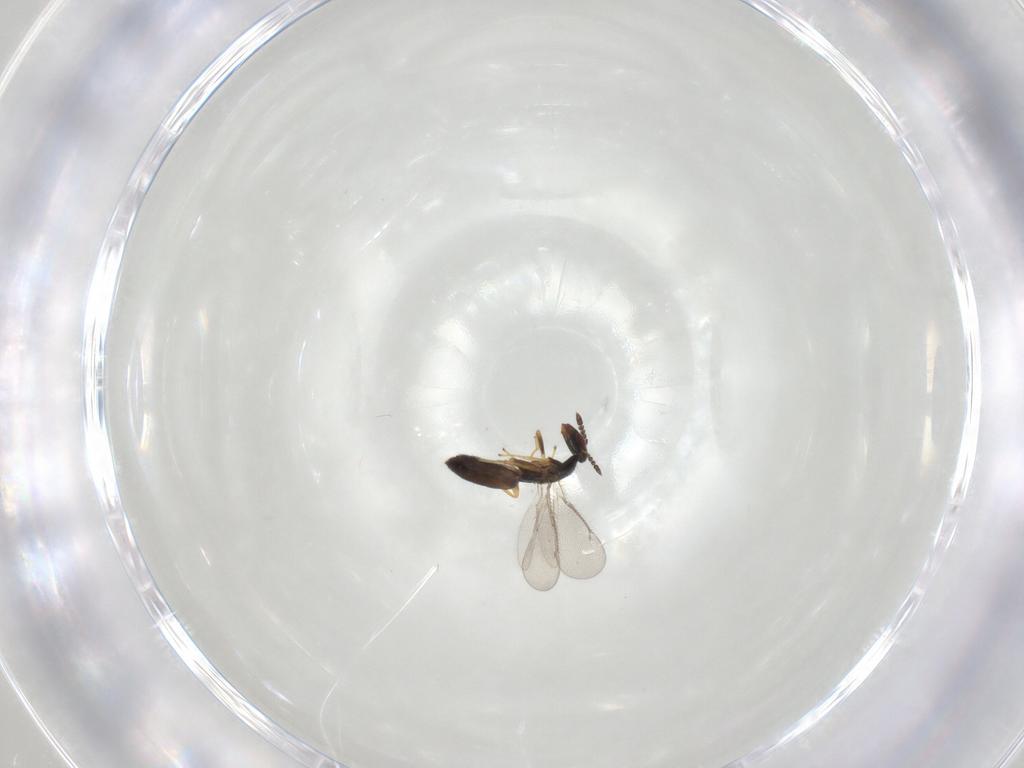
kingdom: Animalia
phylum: Arthropoda
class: Insecta
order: Hymenoptera
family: Eulophidae
